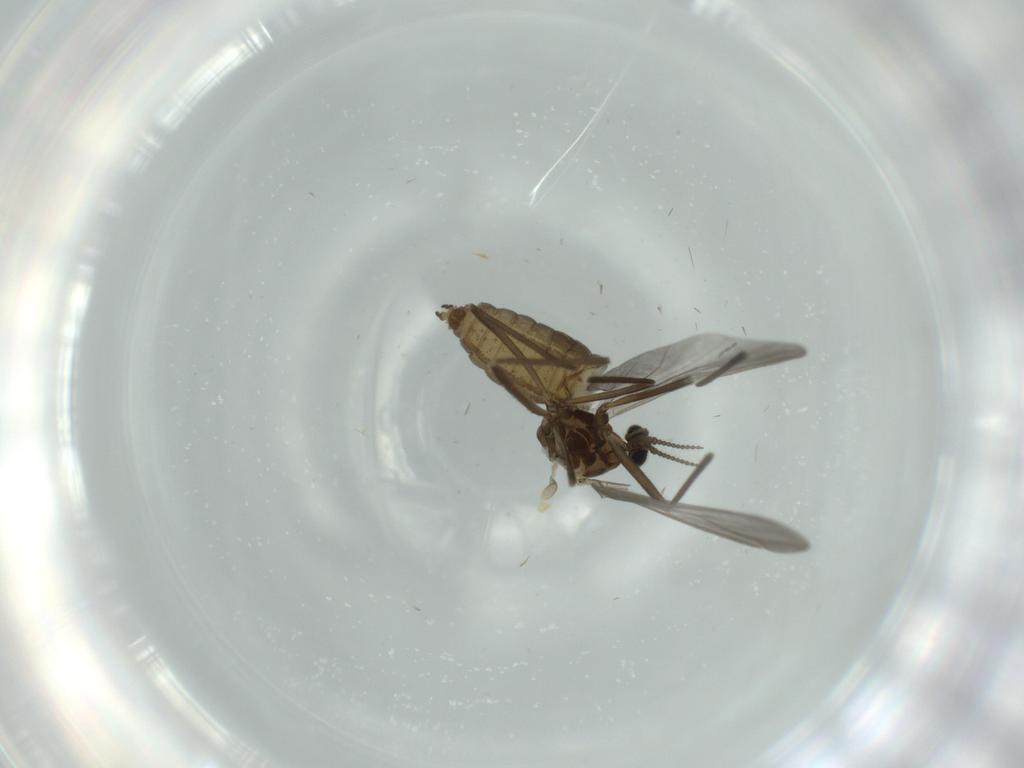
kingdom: Animalia
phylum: Arthropoda
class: Insecta
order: Diptera
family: Cecidomyiidae
